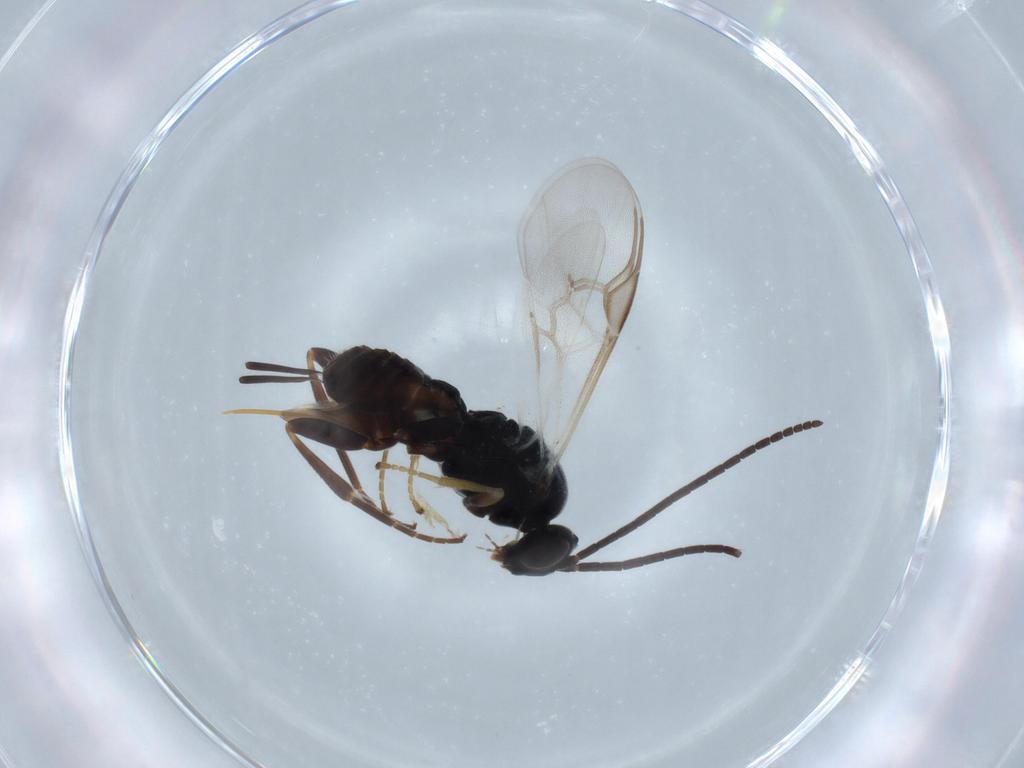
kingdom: Animalia
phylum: Arthropoda
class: Insecta
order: Hymenoptera
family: Braconidae
